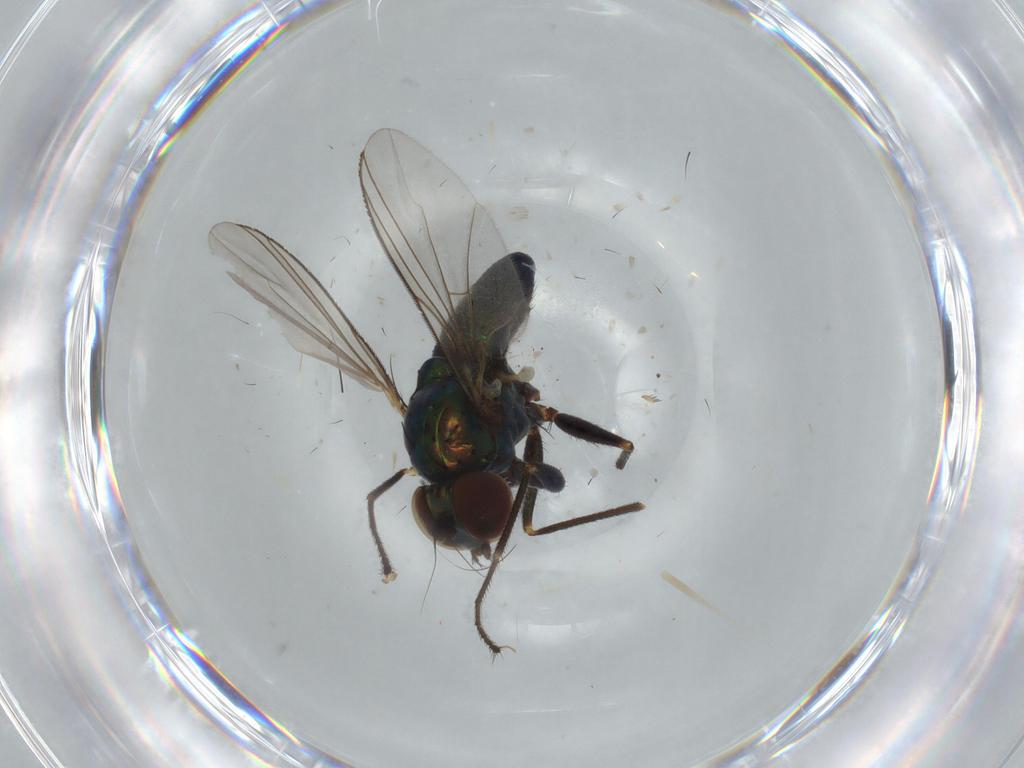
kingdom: Animalia
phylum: Arthropoda
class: Insecta
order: Diptera
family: Dolichopodidae
